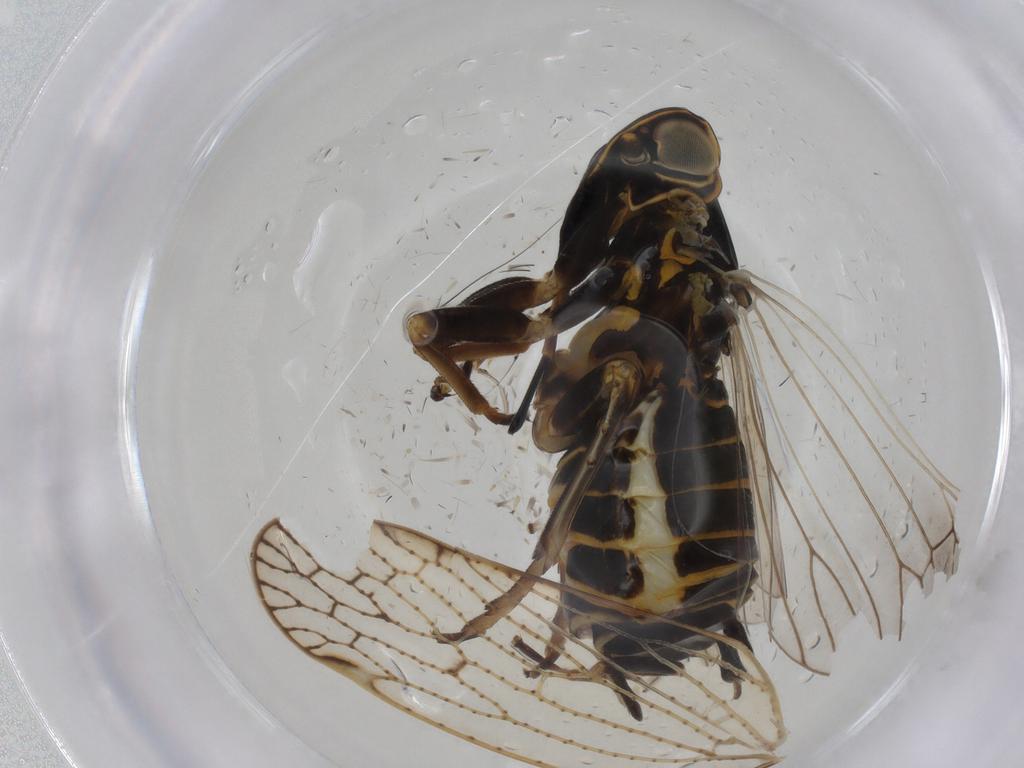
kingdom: Animalia
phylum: Arthropoda
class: Insecta
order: Hemiptera
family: Cixiidae
